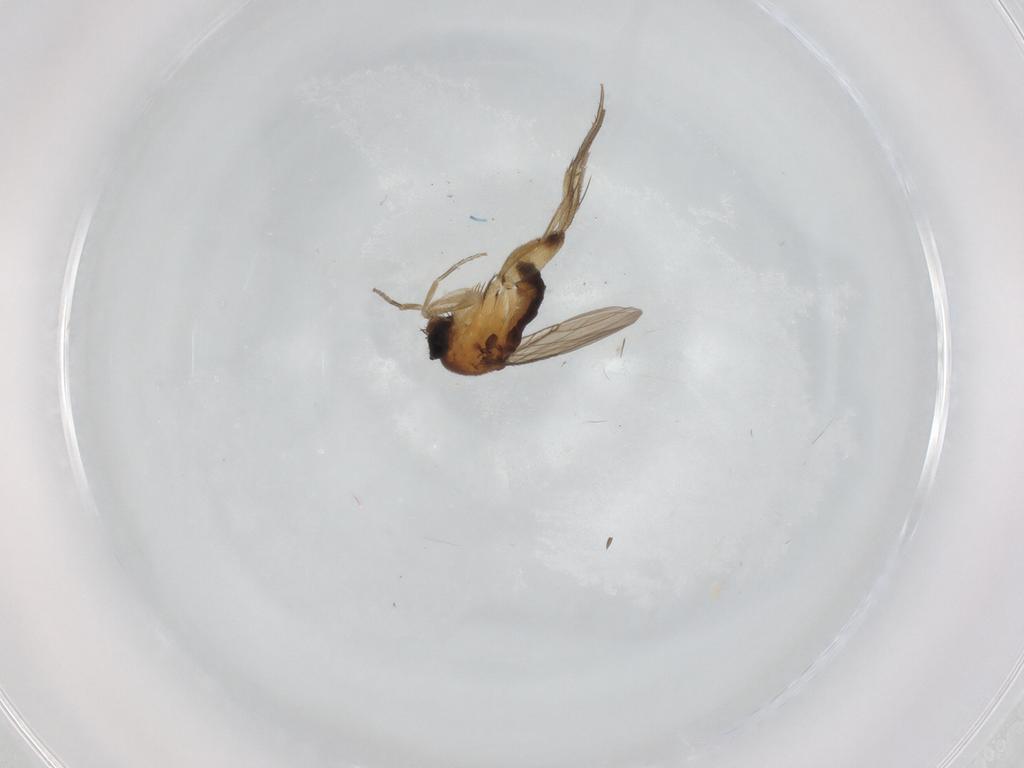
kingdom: Animalia
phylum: Arthropoda
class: Insecta
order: Diptera
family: Phoridae
